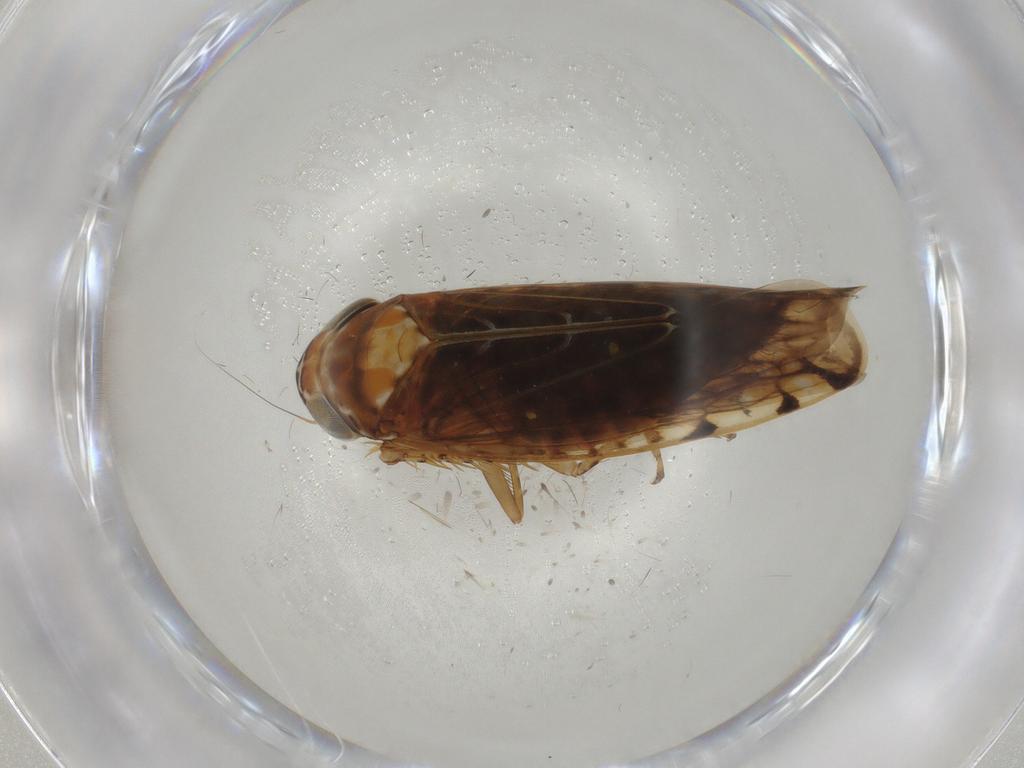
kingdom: Animalia
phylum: Arthropoda
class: Insecta
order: Hemiptera
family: Cicadellidae
